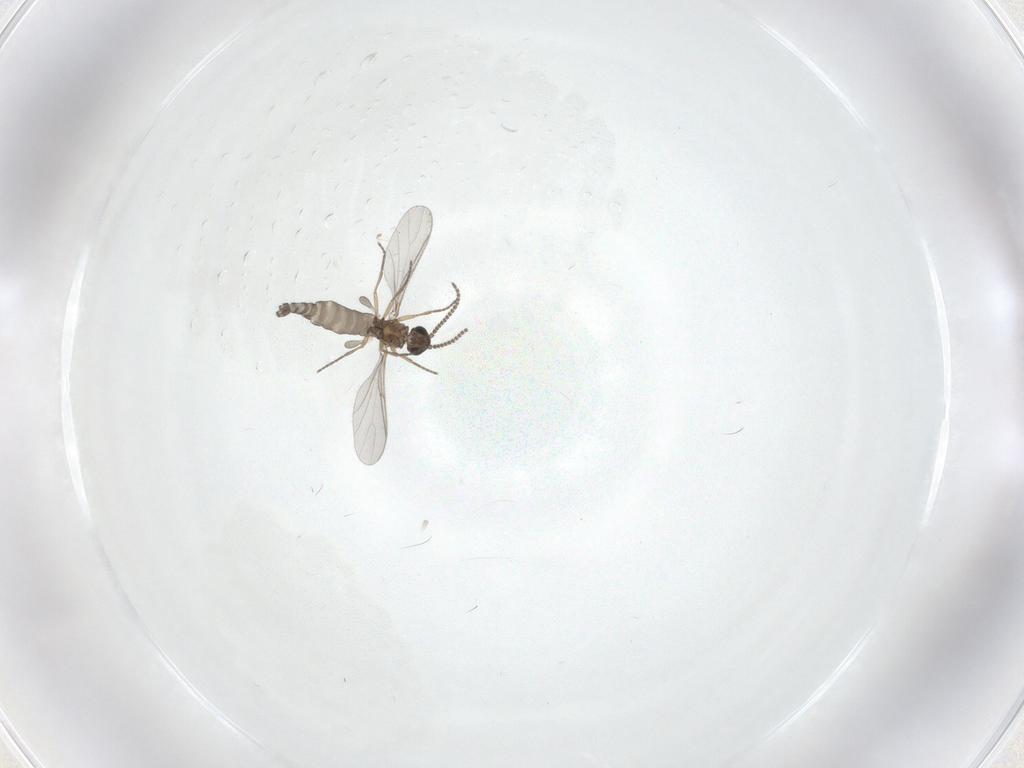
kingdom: Animalia
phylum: Arthropoda
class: Insecta
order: Diptera
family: Sciaridae
